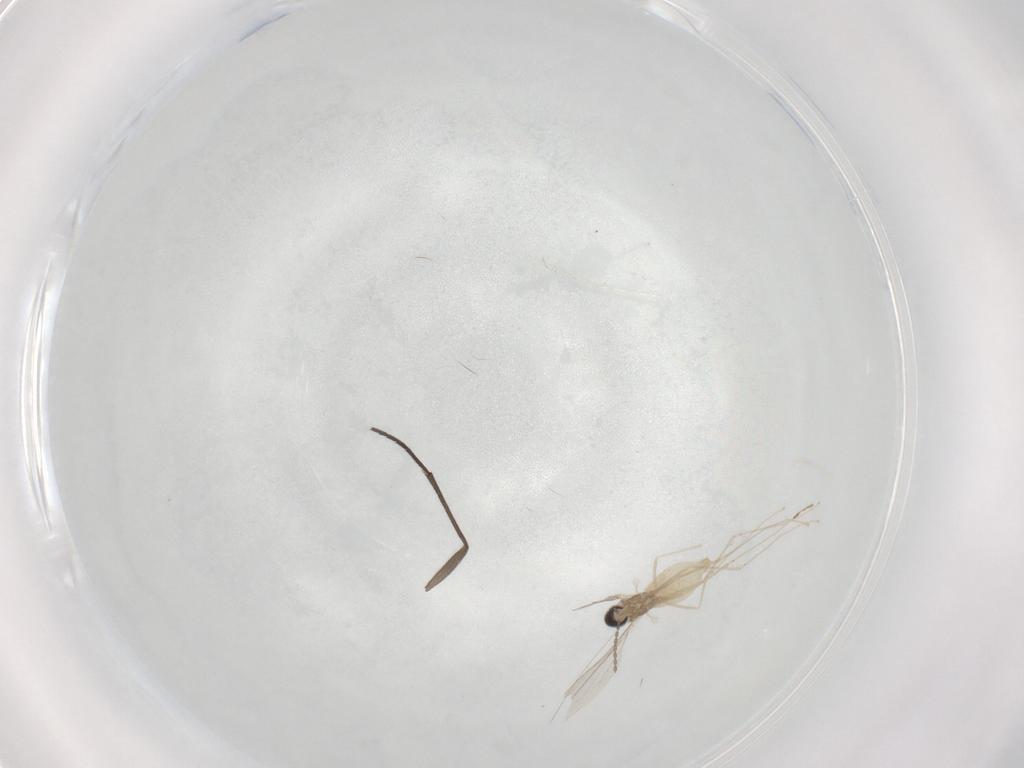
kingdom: Animalia
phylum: Arthropoda
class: Insecta
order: Diptera
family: Cecidomyiidae
